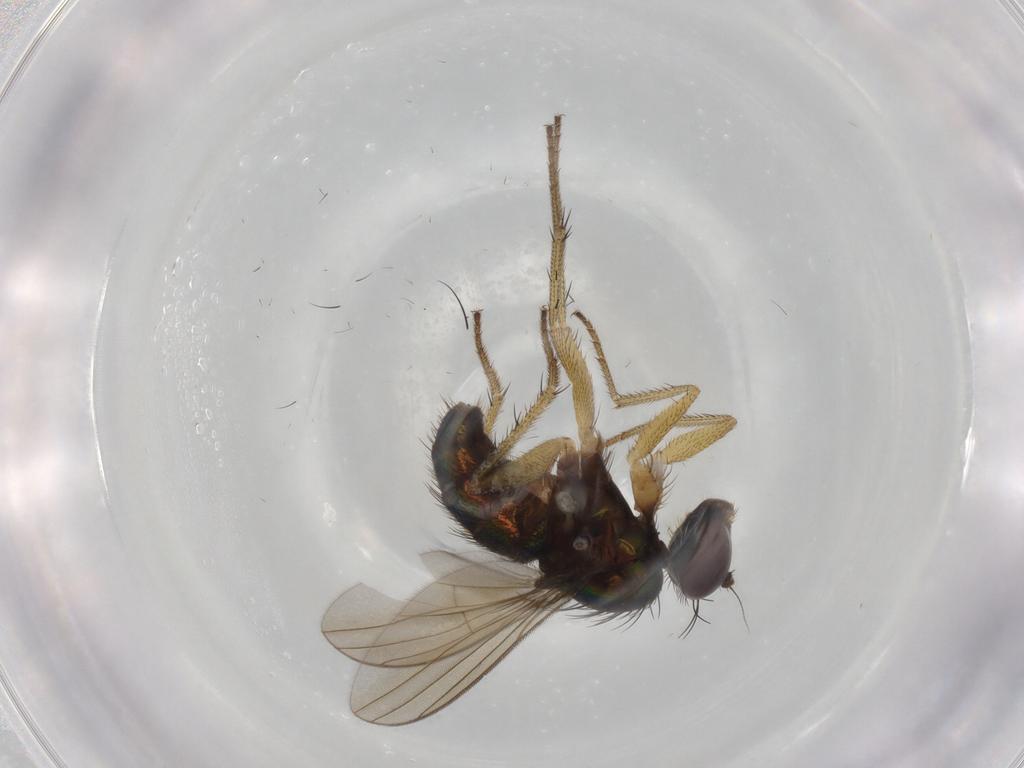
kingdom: Animalia
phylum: Arthropoda
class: Insecta
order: Diptera
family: Dolichopodidae
